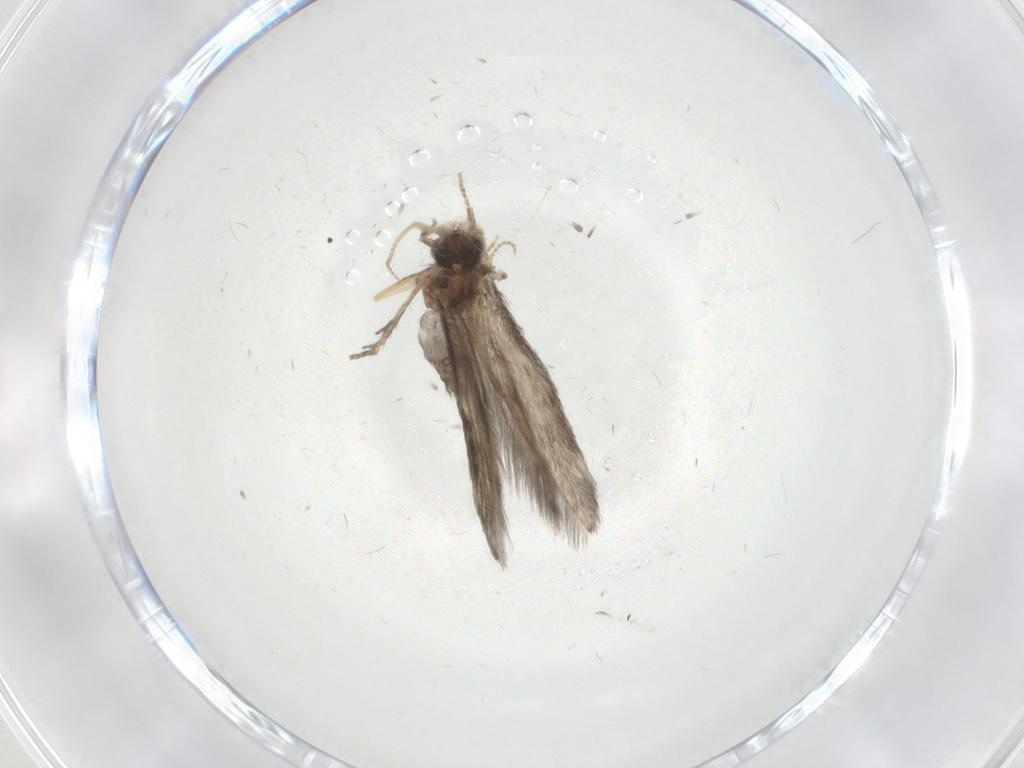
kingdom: Animalia
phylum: Arthropoda
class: Insecta
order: Trichoptera
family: Hydroptilidae
